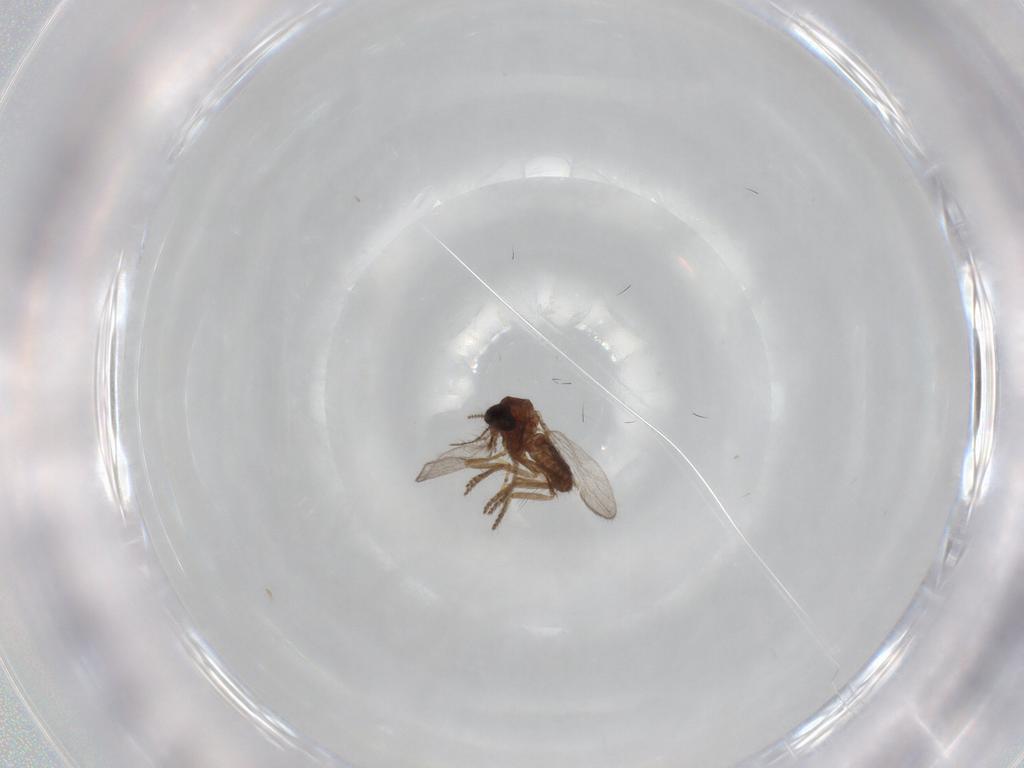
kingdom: Animalia
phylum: Arthropoda
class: Insecta
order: Diptera
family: Ceratopogonidae
